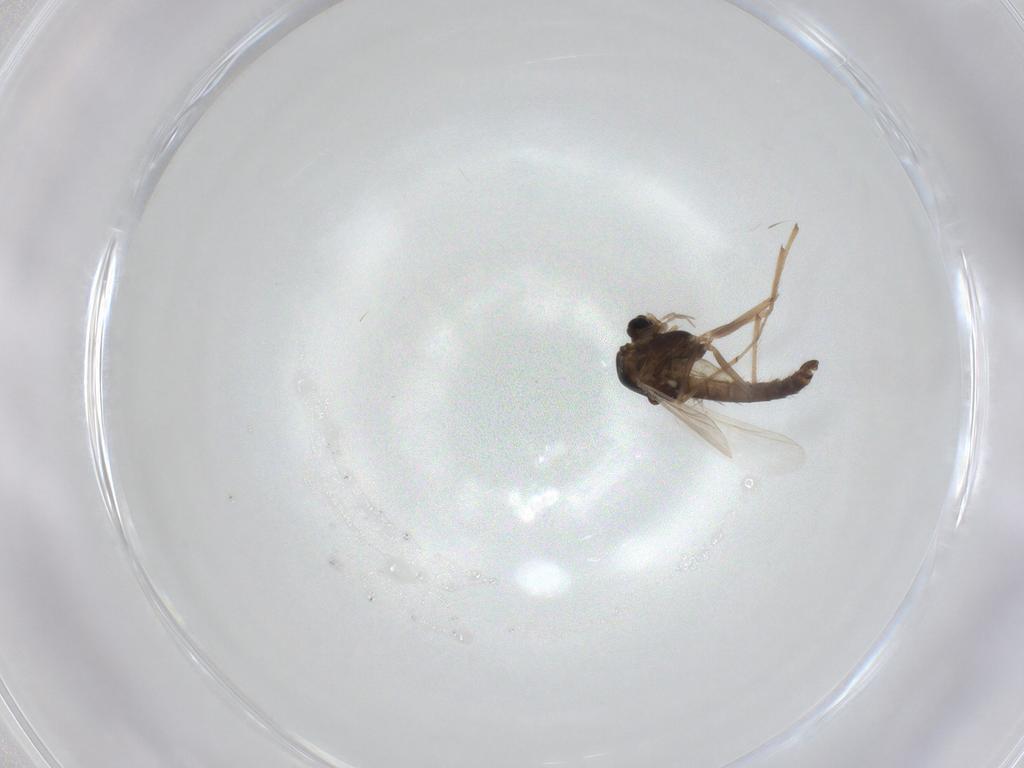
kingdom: Animalia
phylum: Arthropoda
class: Insecta
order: Diptera
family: Chironomidae
